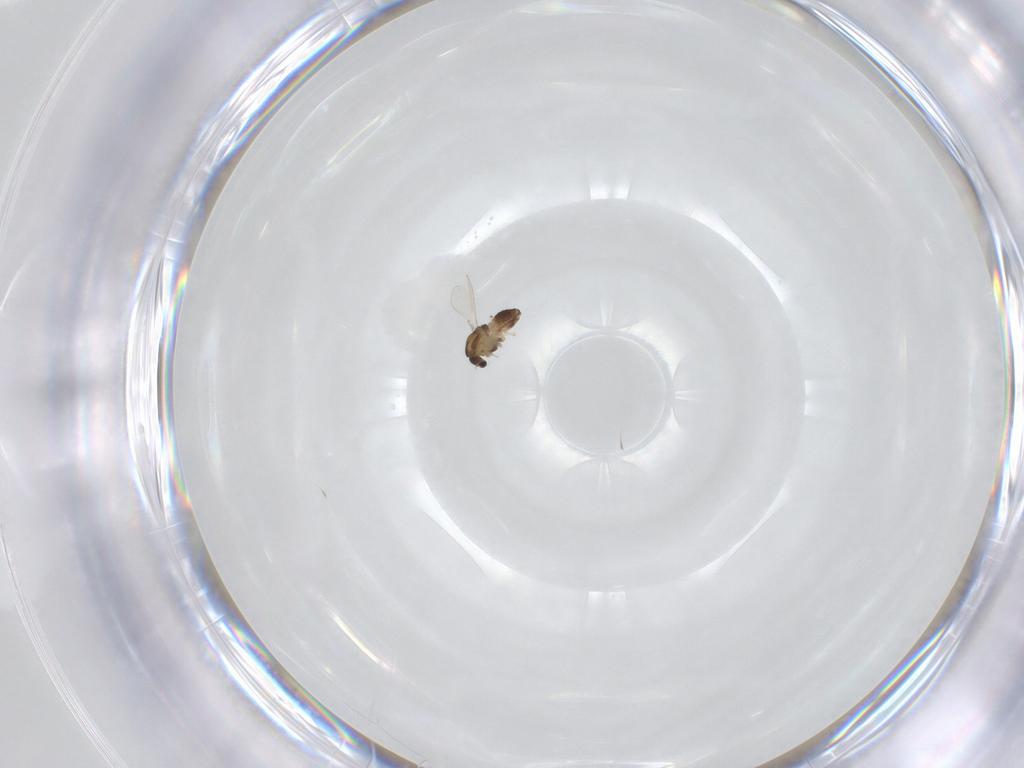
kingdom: Animalia
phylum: Arthropoda
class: Insecta
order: Diptera
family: Chironomidae
